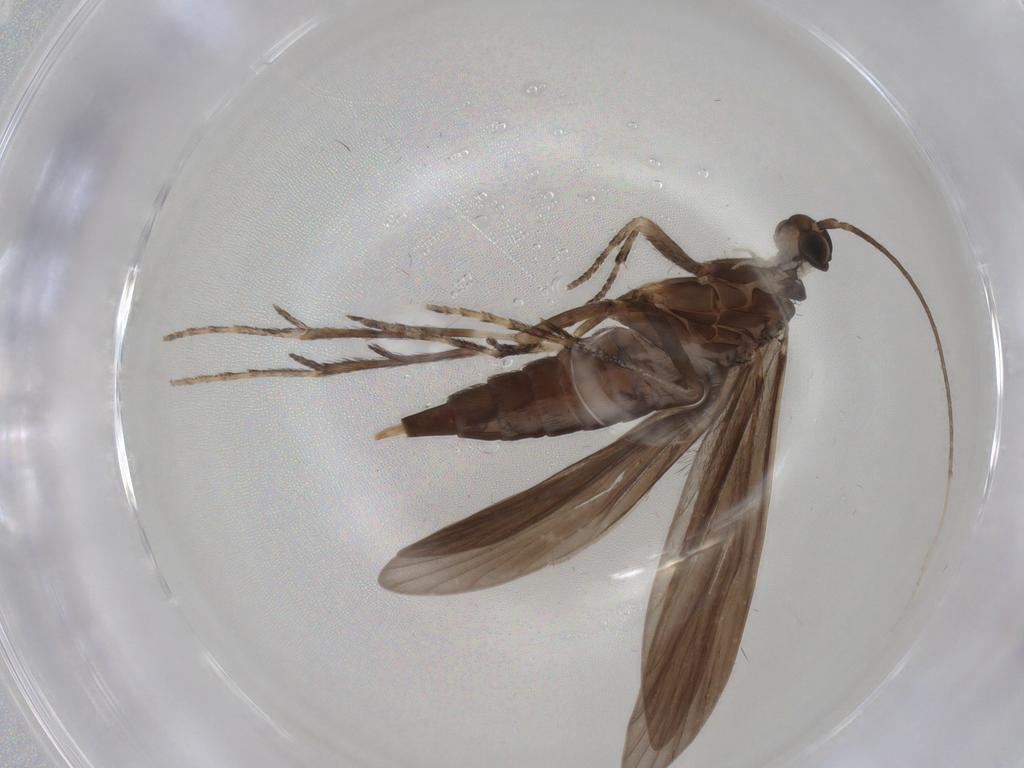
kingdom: Animalia
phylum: Arthropoda
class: Insecta
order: Trichoptera
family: Xiphocentronidae
